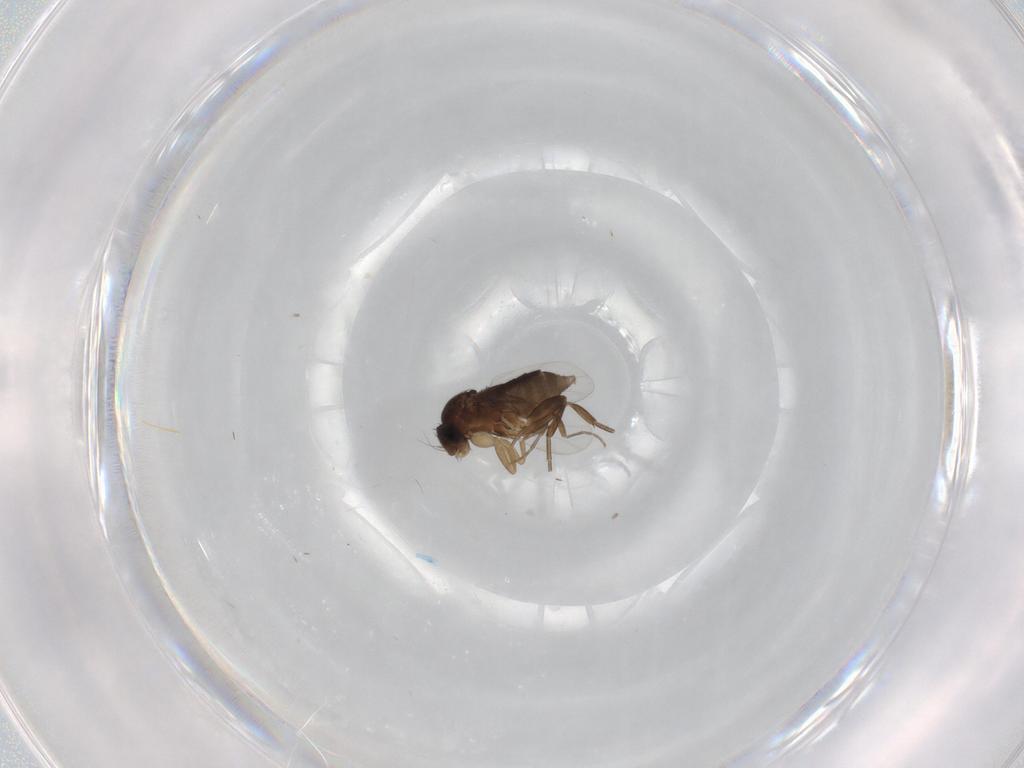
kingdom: Animalia
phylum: Arthropoda
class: Insecta
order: Diptera
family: Phoridae
